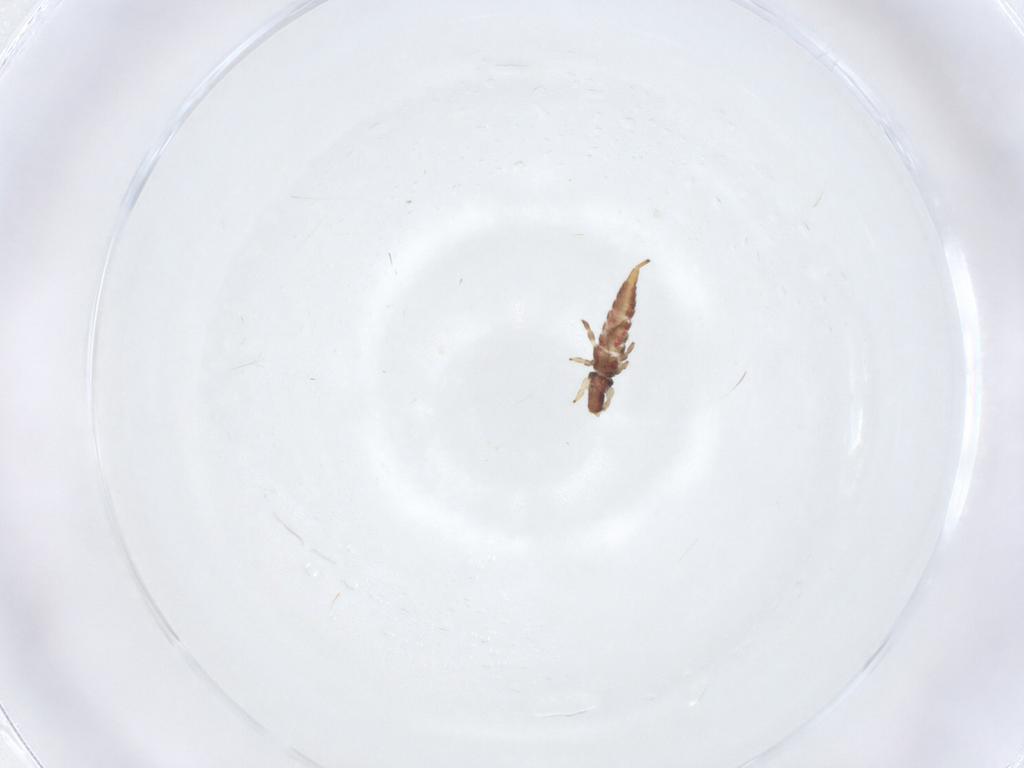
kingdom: Animalia
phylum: Arthropoda
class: Insecta
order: Thysanoptera
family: Phlaeothripidae
